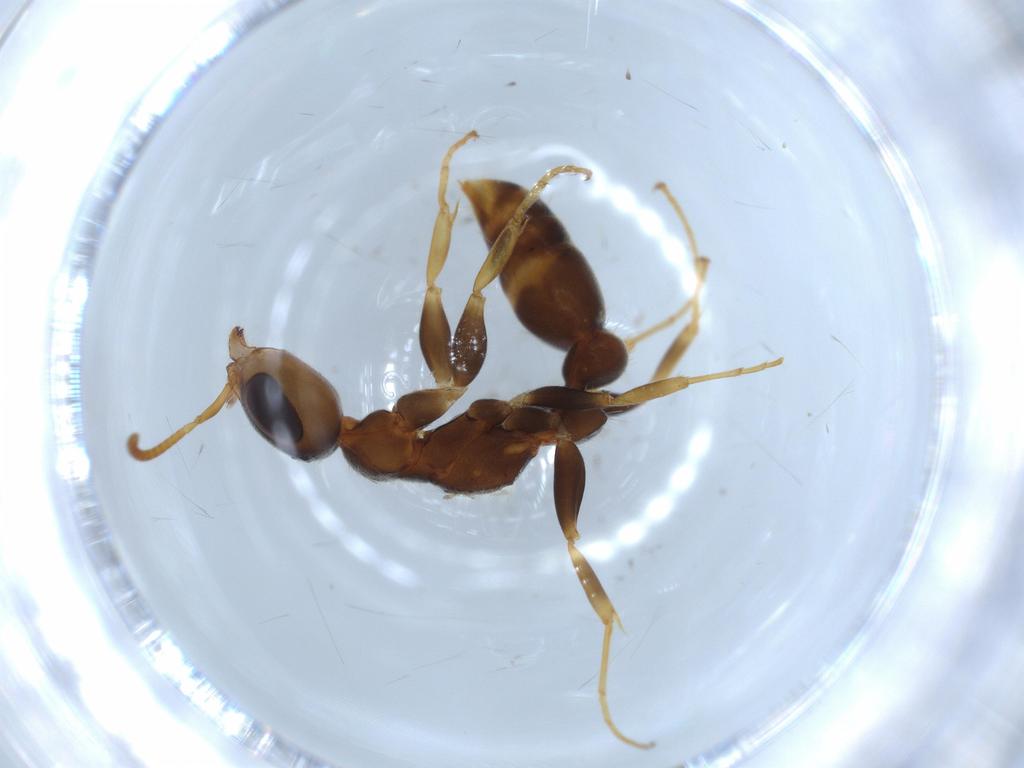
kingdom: Animalia
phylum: Arthropoda
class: Insecta
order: Hymenoptera
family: Formicidae
